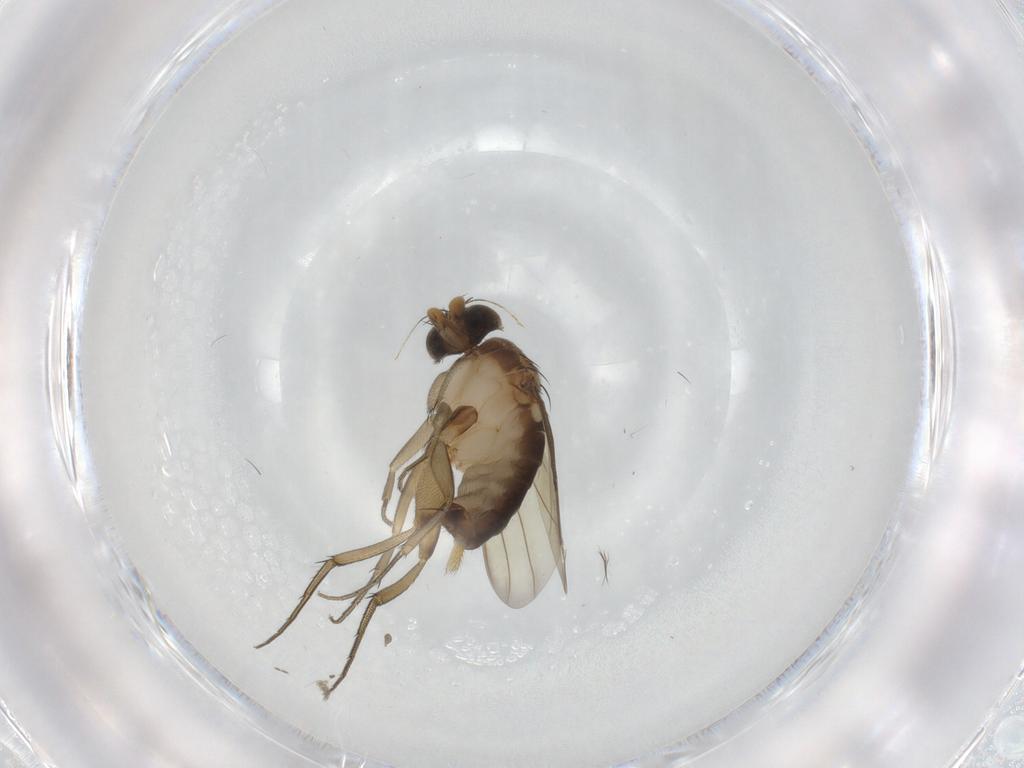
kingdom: Animalia
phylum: Arthropoda
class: Insecta
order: Diptera
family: Phoridae
